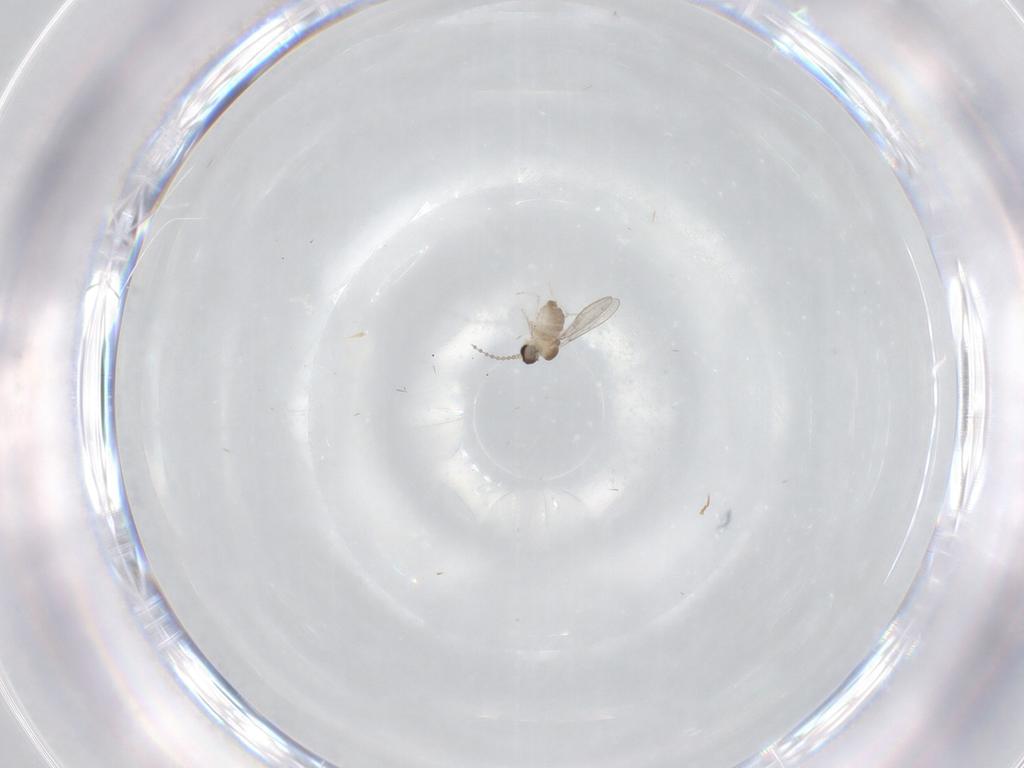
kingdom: Animalia
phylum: Arthropoda
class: Insecta
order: Diptera
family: Cecidomyiidae
